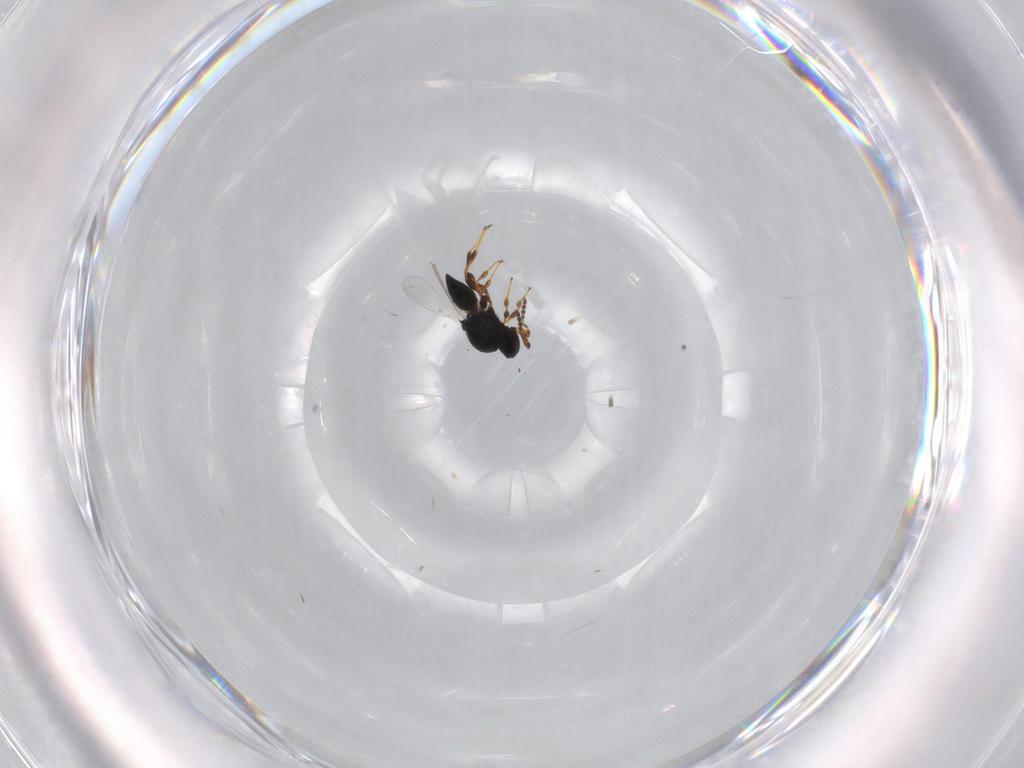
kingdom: Animalia
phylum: Arthropoda
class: Insecta
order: Hymenoptera
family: Platygastridae
